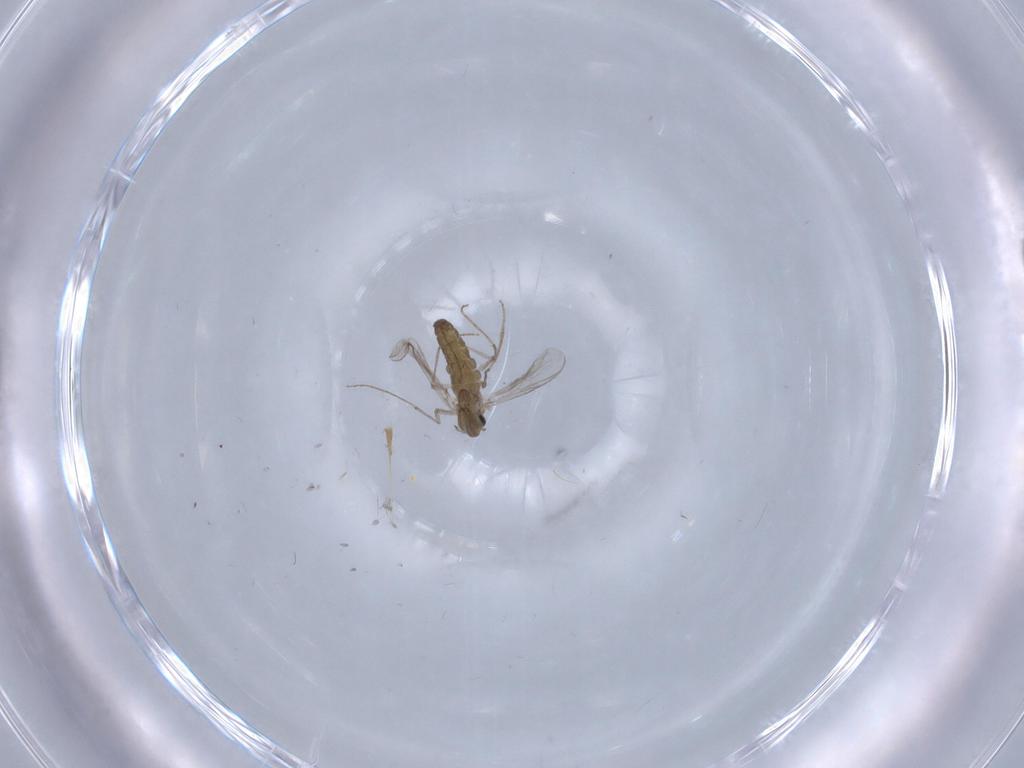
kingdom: Animalia
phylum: Arthropoda
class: Insecta
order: Diptera
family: Chironomidae
